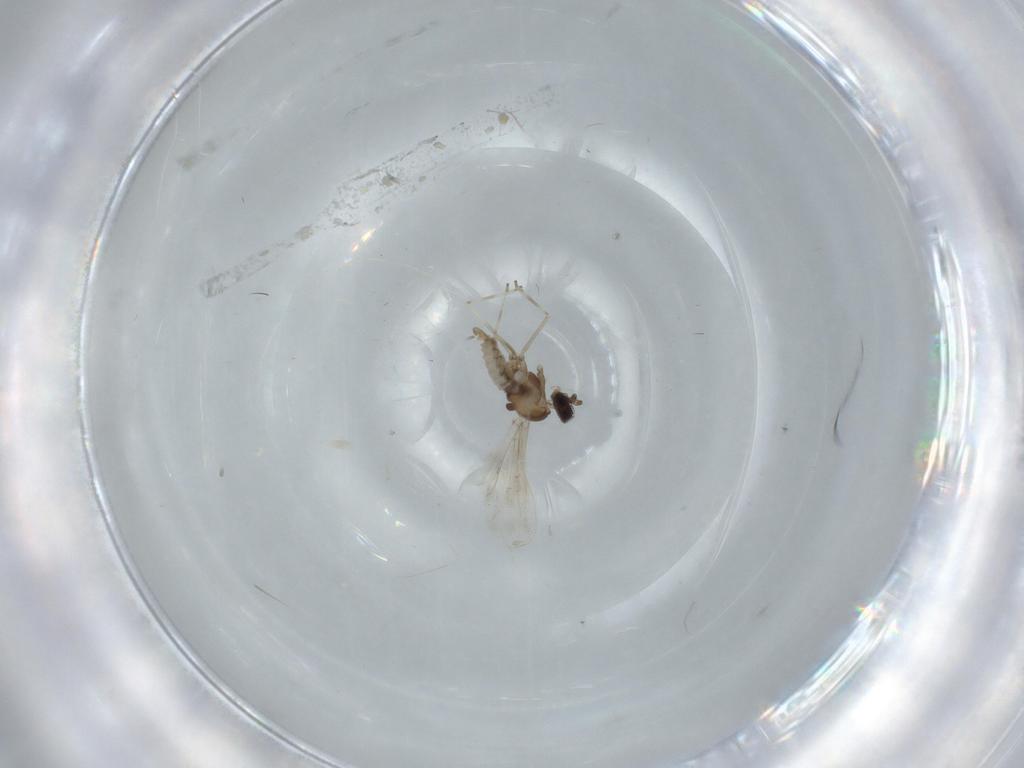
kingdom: Animalia
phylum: Arthropoda
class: Insecta
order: Diptera
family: Cecidomyiidae
